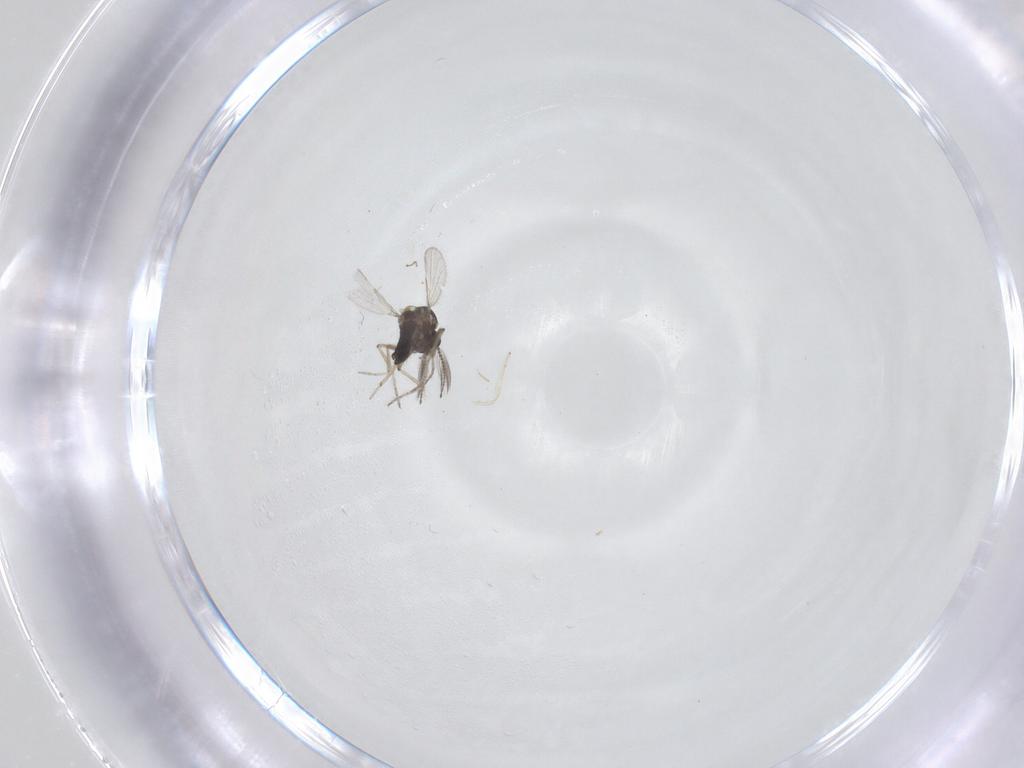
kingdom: Animalia
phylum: Arthropoda
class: Insecta
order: Diptera
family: Ceratopogonidae
